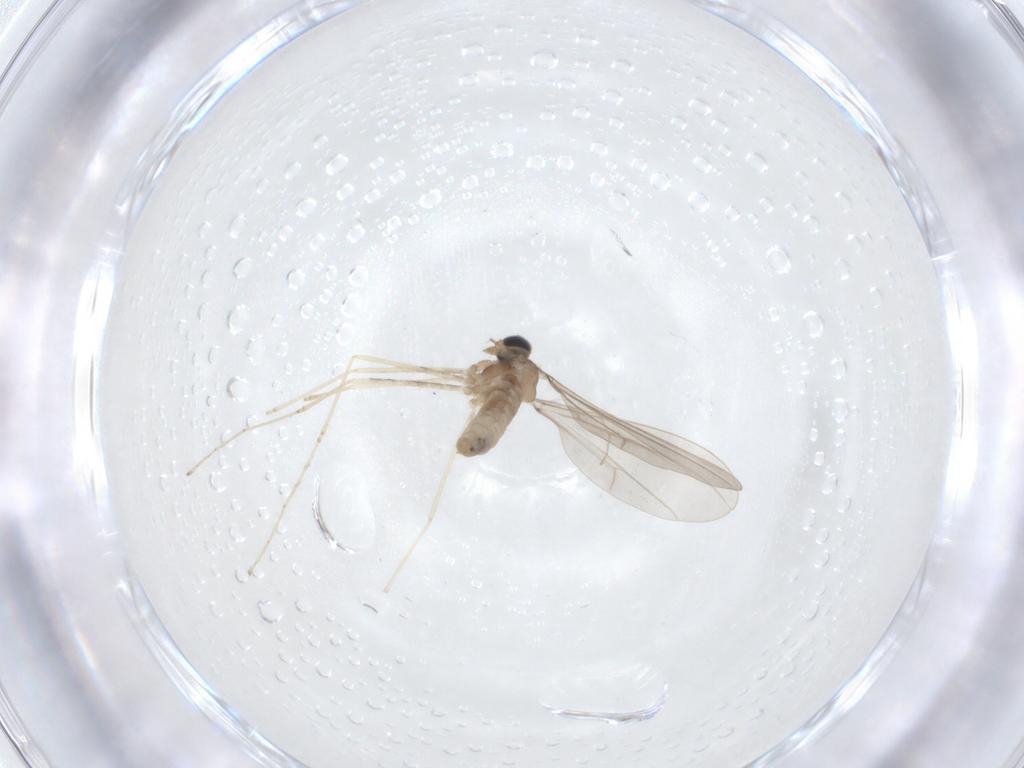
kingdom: Animalia
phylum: Arthropoda
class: Insecta
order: Diptera
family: Cecidomyiidae
